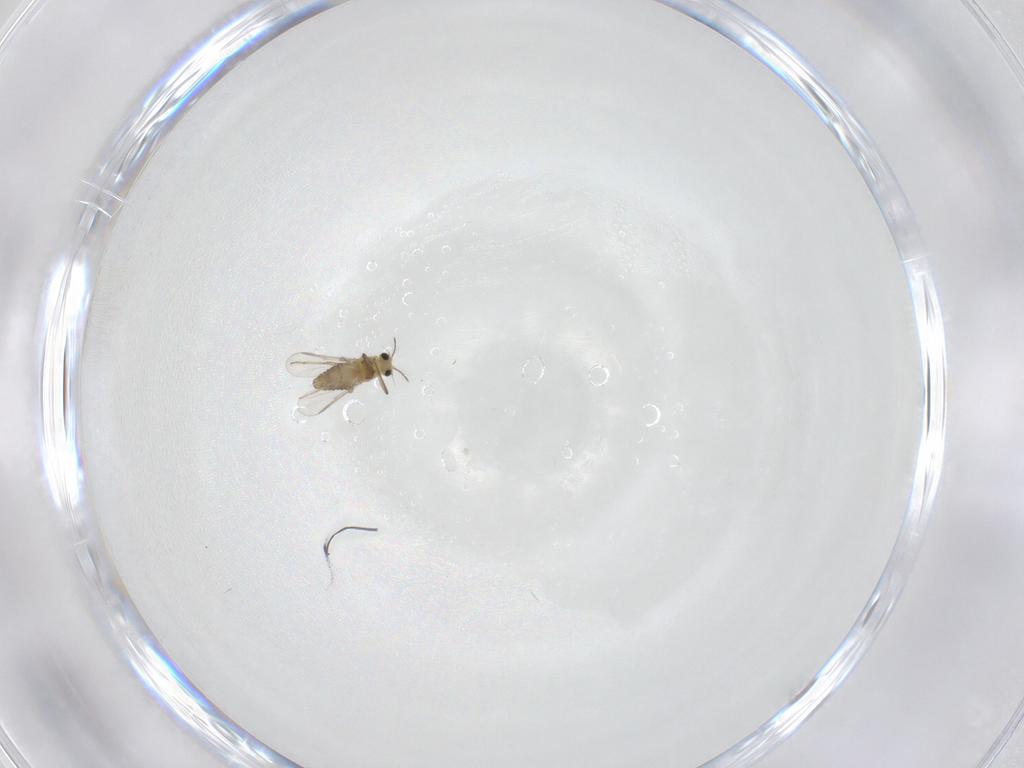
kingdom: Animalia
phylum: Arthropoda
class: Insecta
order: Diptera
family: Chironomidae
